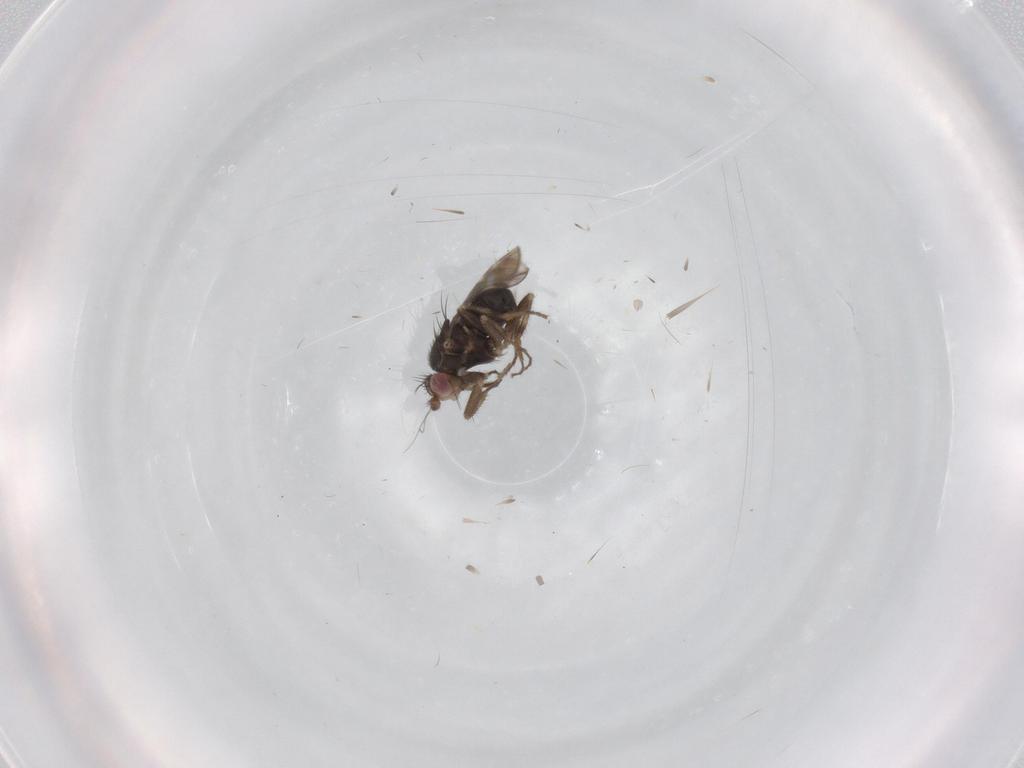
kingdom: Animalia
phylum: Arthropoda
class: Insecta
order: Diptera
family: Sphaeroceridae
